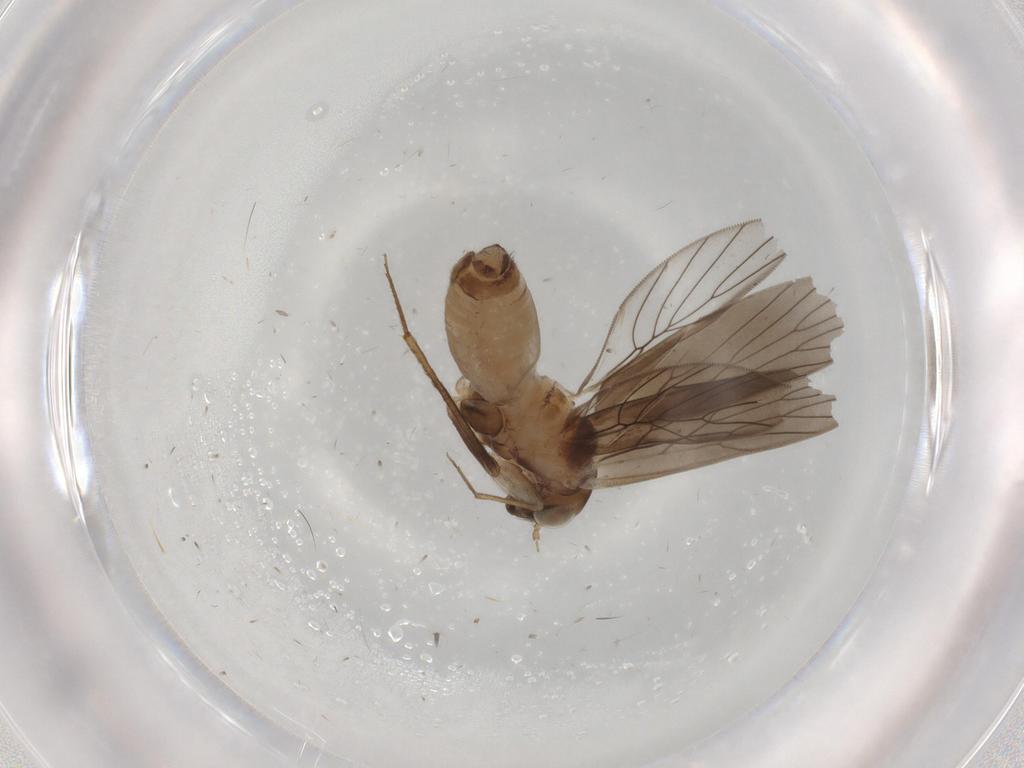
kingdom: Animalia
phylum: Arthropoda
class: Insecta
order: Psocodea
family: Lepidopsocidae
